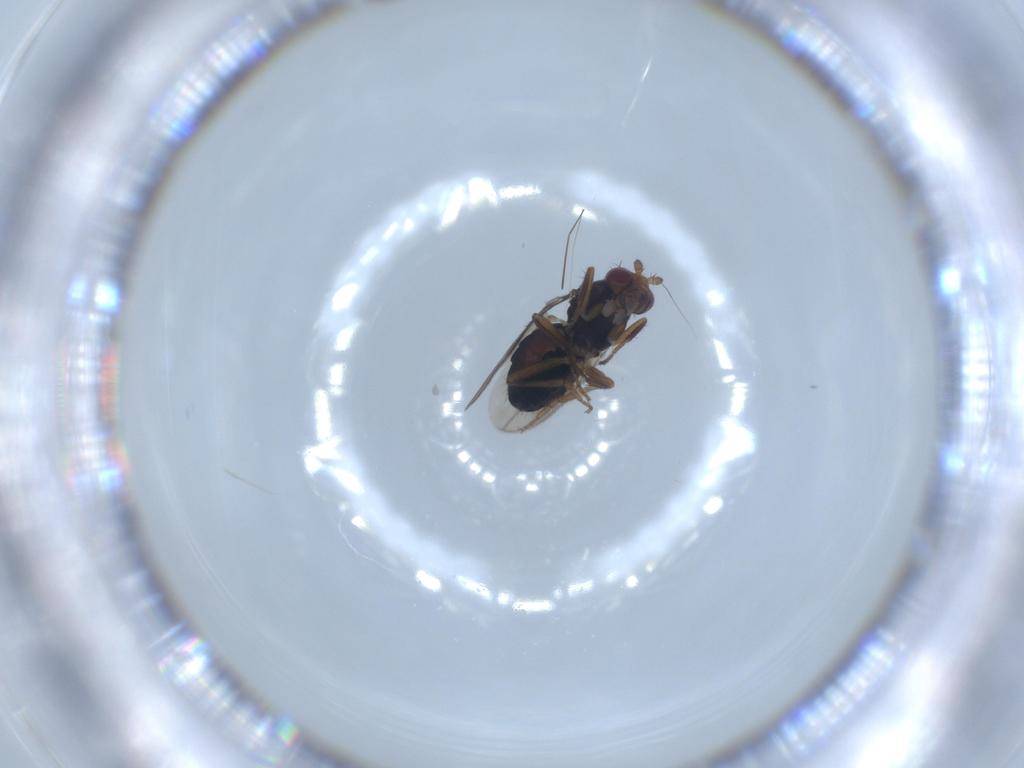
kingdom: Animalia
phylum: Arthropoda
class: Insecta
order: Diptera
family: Sphaeroceridae
